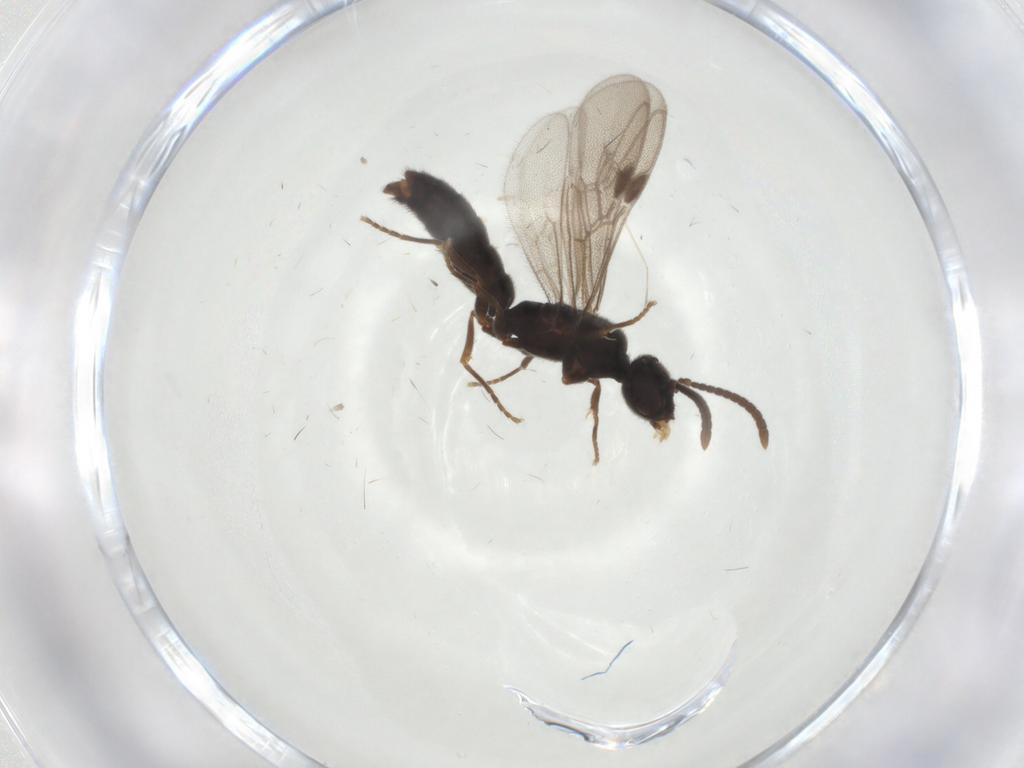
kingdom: Animalia
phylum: Arthropoda
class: Insecta
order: Hymenoptera
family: Formicidae
